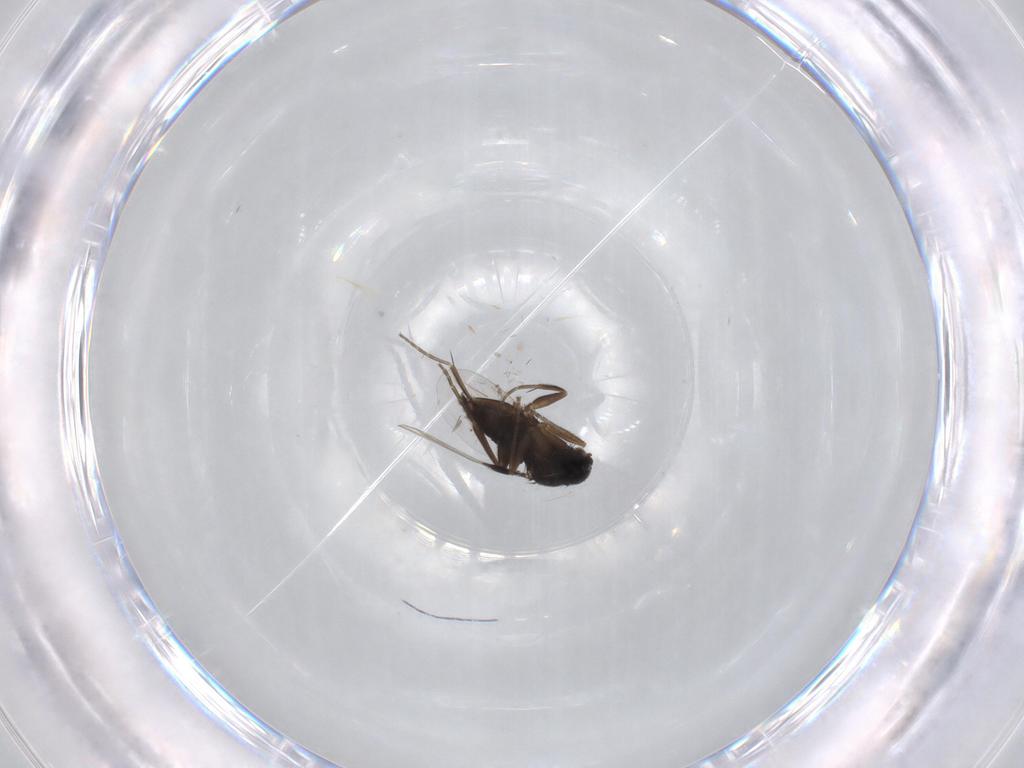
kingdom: Animalia
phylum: Arthropoda
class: Insecta
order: Diptera
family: Phoridae
